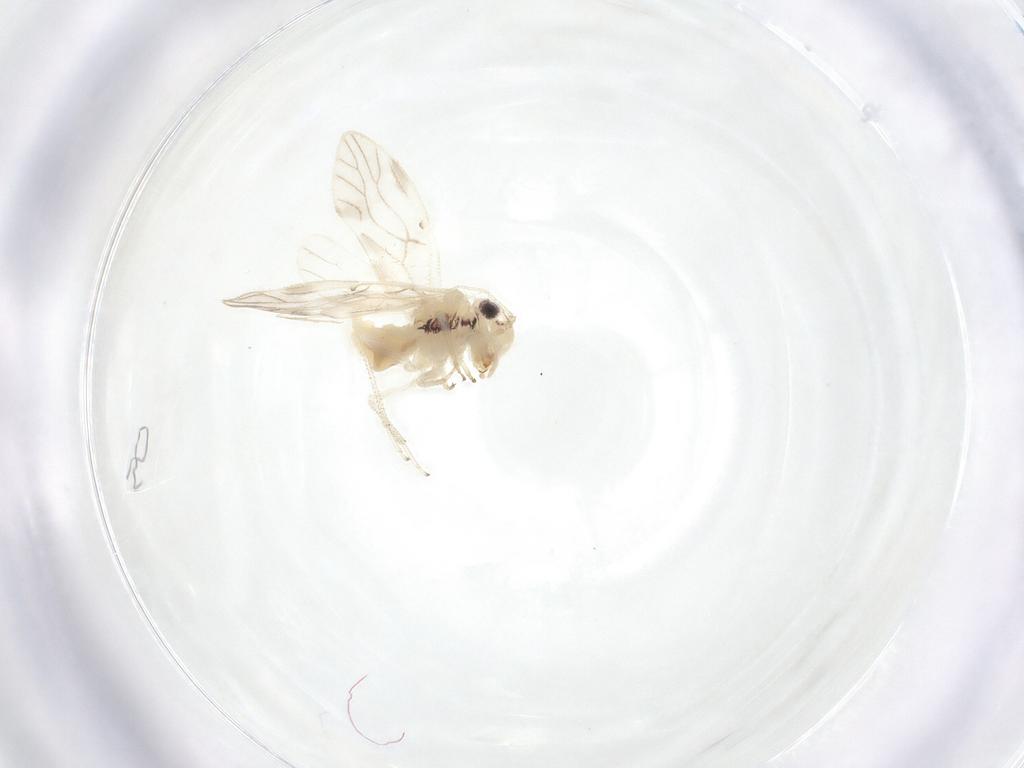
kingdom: Animalia
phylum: Arthropoda
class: Insecta
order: Psocodea
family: Caeciliusidae
